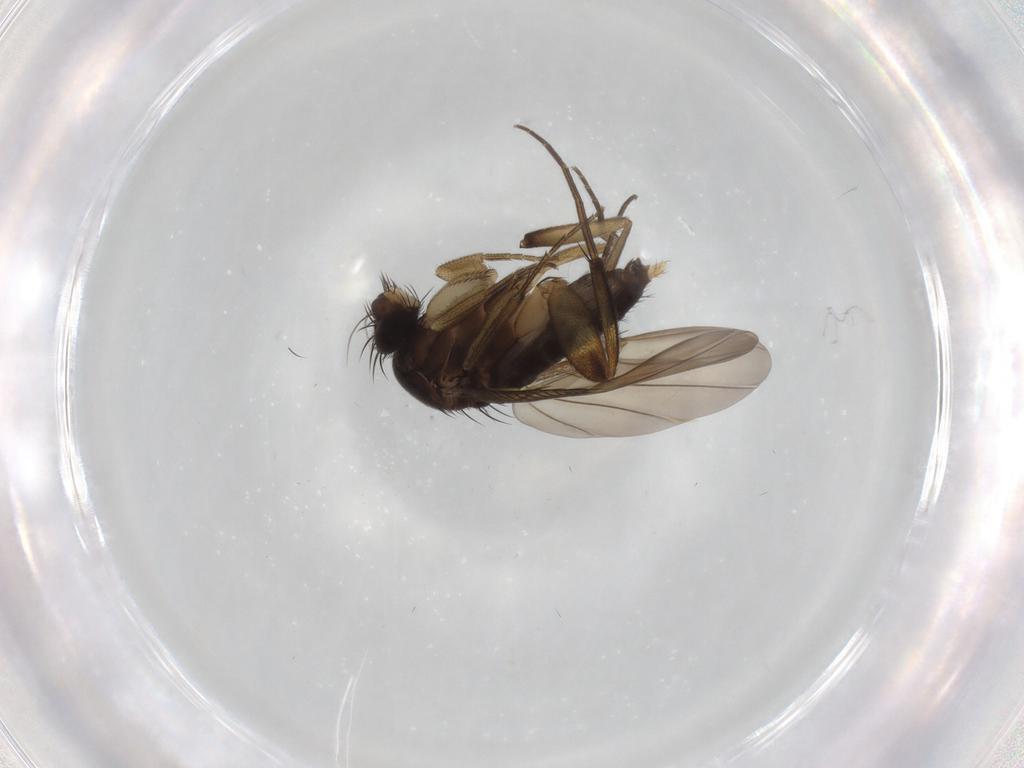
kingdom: Animalia
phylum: Arthropoda
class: Insecta
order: Diptera
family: Phoridae
